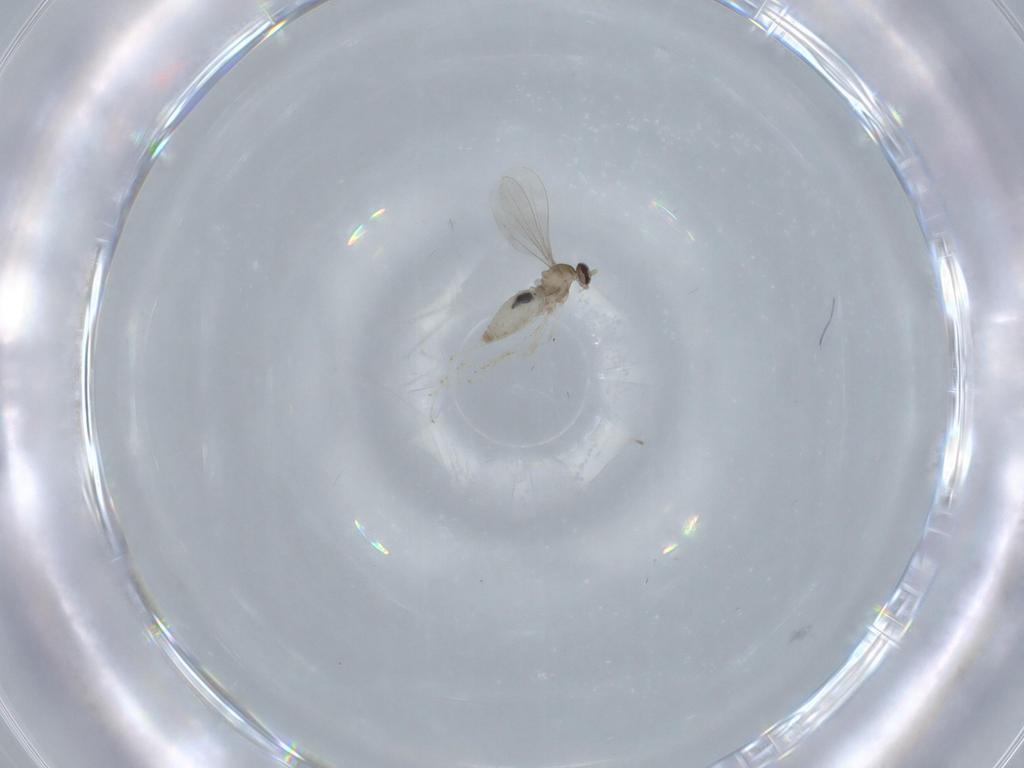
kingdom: Animalia
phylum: Arthropoda
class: Insecta
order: Diptera
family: Cecidomyiidae
